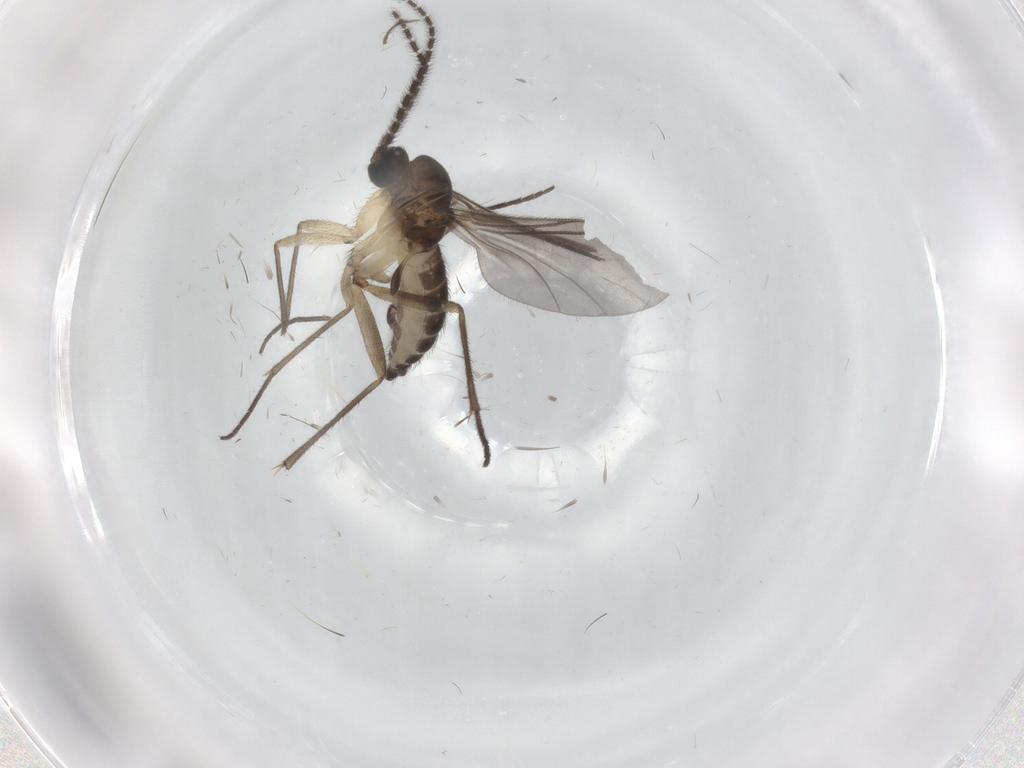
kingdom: Animalia
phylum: Arthropoda
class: Insecta
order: Diptera
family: Sciaridae
